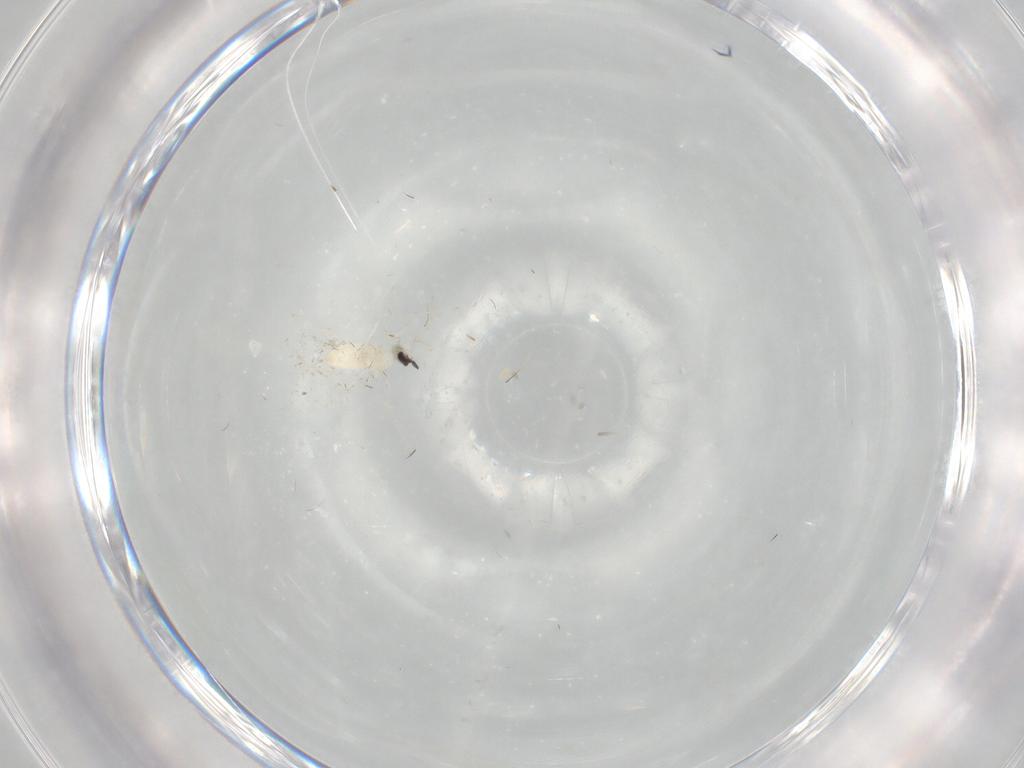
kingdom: Animalia
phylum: Arthropoda
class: Insecta
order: Diptera
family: Cecidomyiidae
